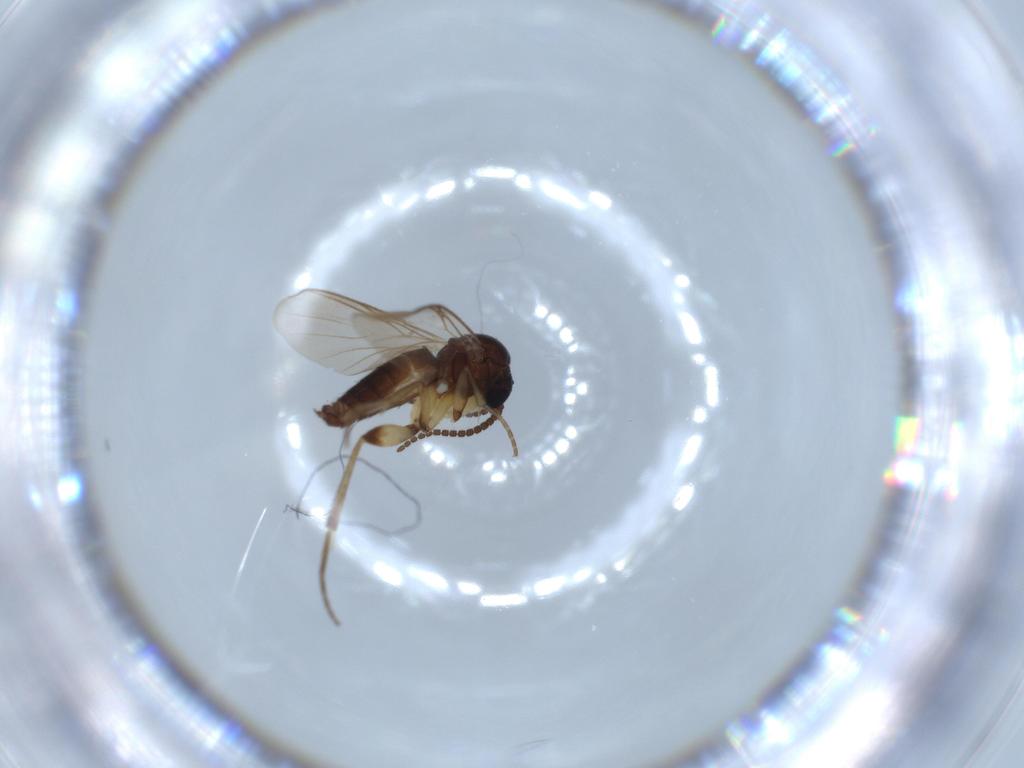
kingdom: Animalia
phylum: Arthropoda
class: Insecta
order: Diptera
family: Mycetophilidae
